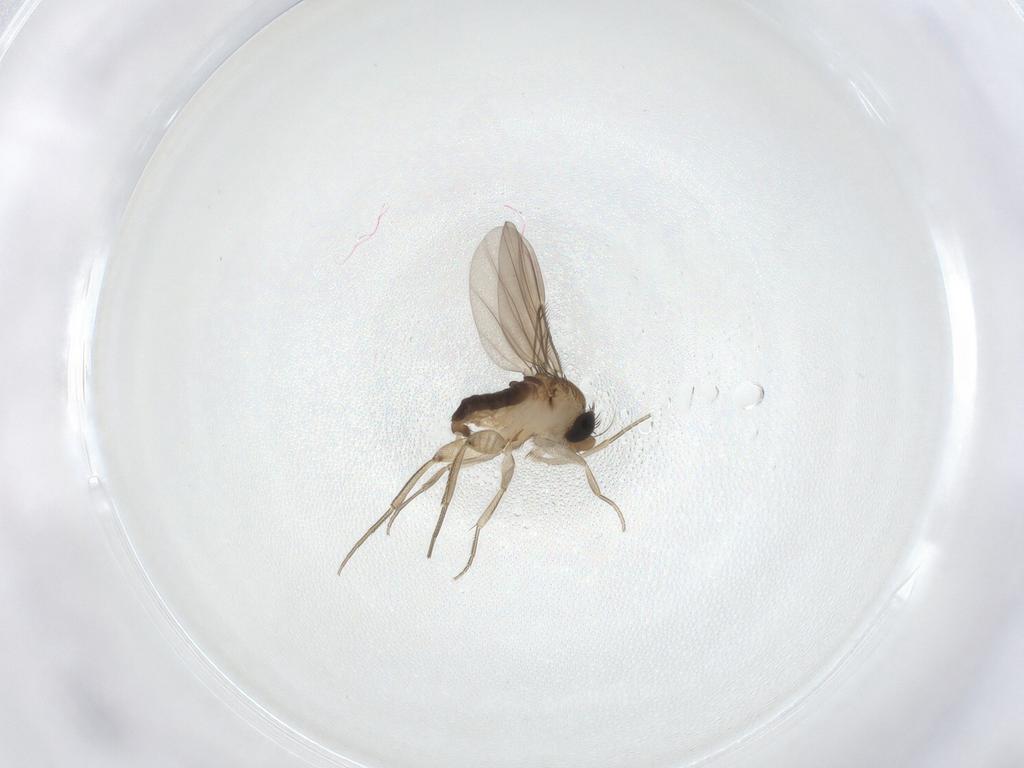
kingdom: Animalia
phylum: Arthropoda
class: Insecta
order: Diptera
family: Phoridae
